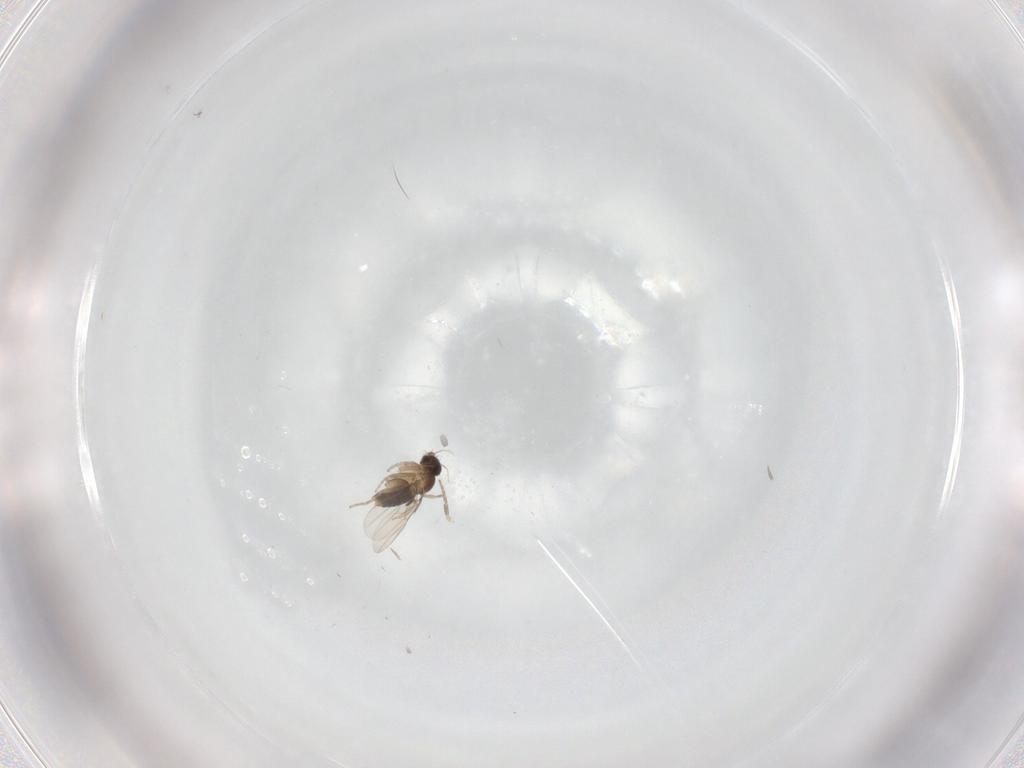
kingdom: Animalia
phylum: Arthropoda
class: Insecta
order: Diptera
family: Phoridae
